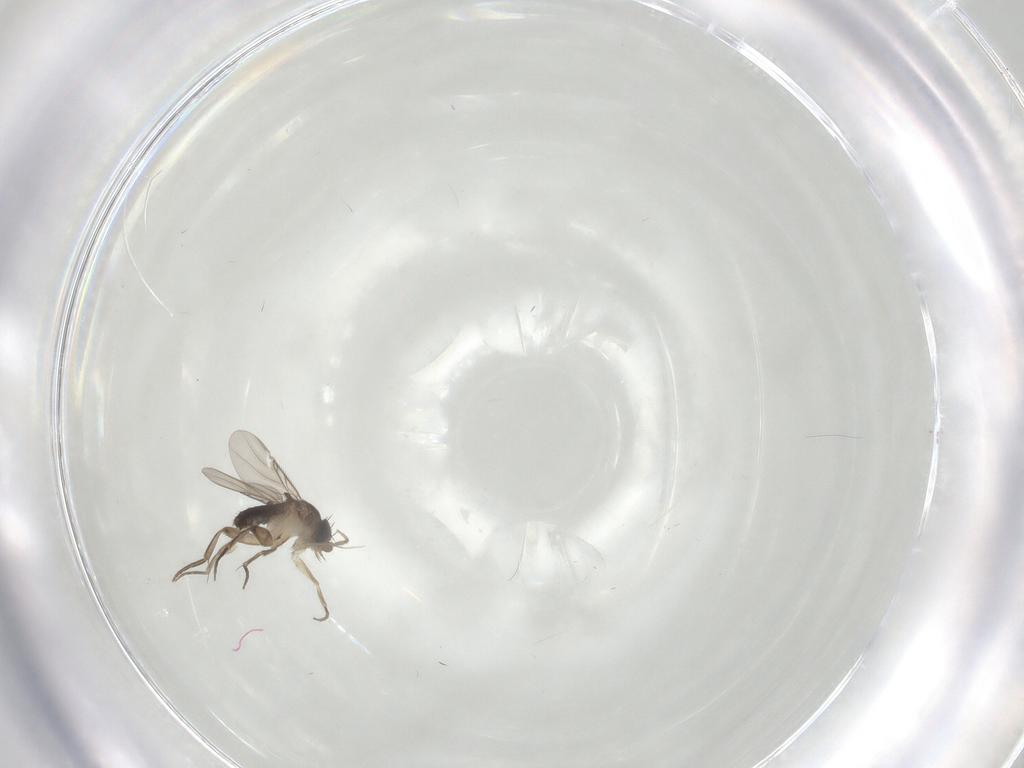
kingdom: Animalia
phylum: Arthropoda
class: Insecta
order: Diptera
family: Phoridae
